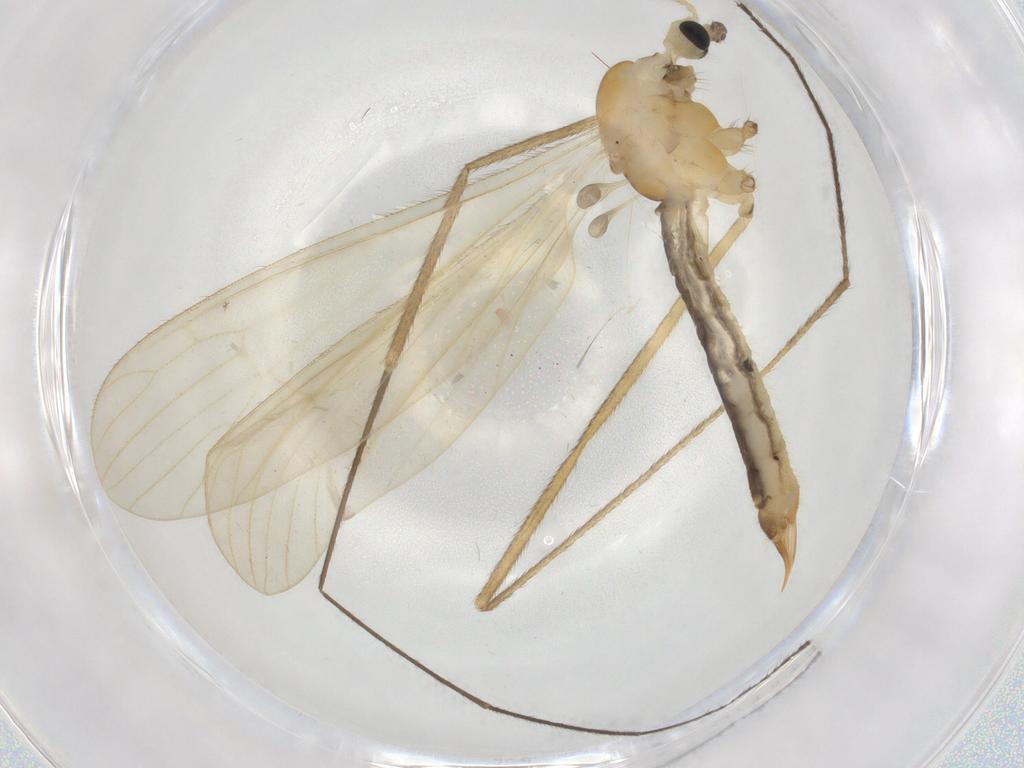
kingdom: Animalia
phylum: Arthropoda
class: Insecta
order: Diptera
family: Limoniidae
